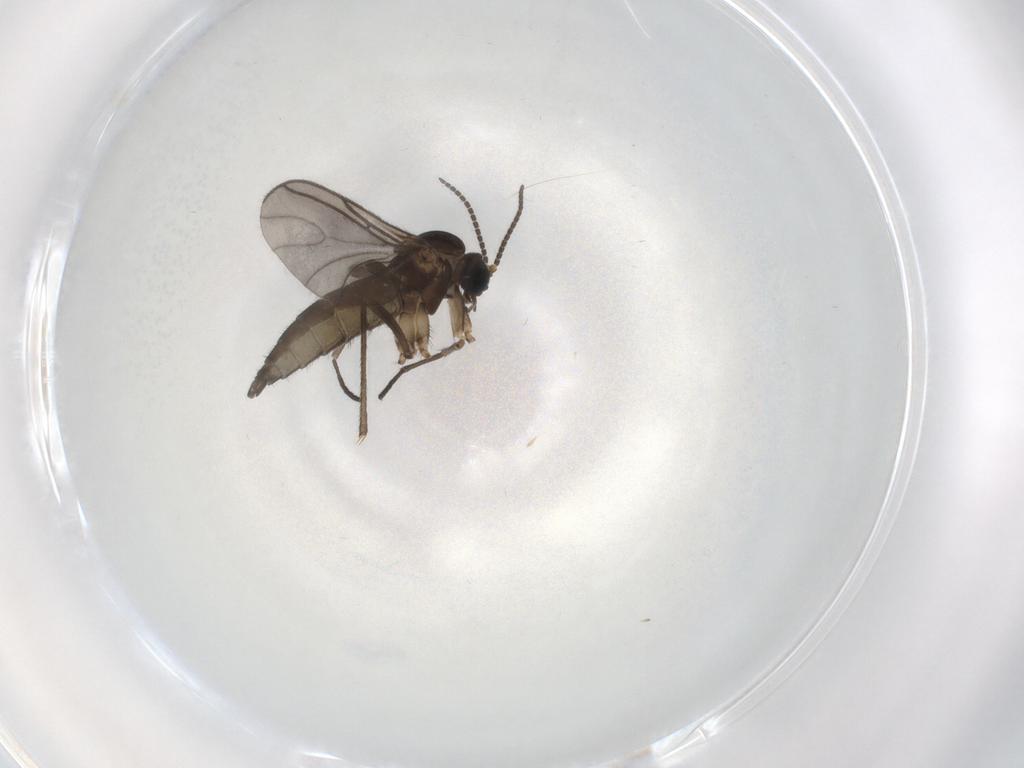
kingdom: Animalia
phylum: Arthropoda
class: Insecta
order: Diptera
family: Sciaridae
